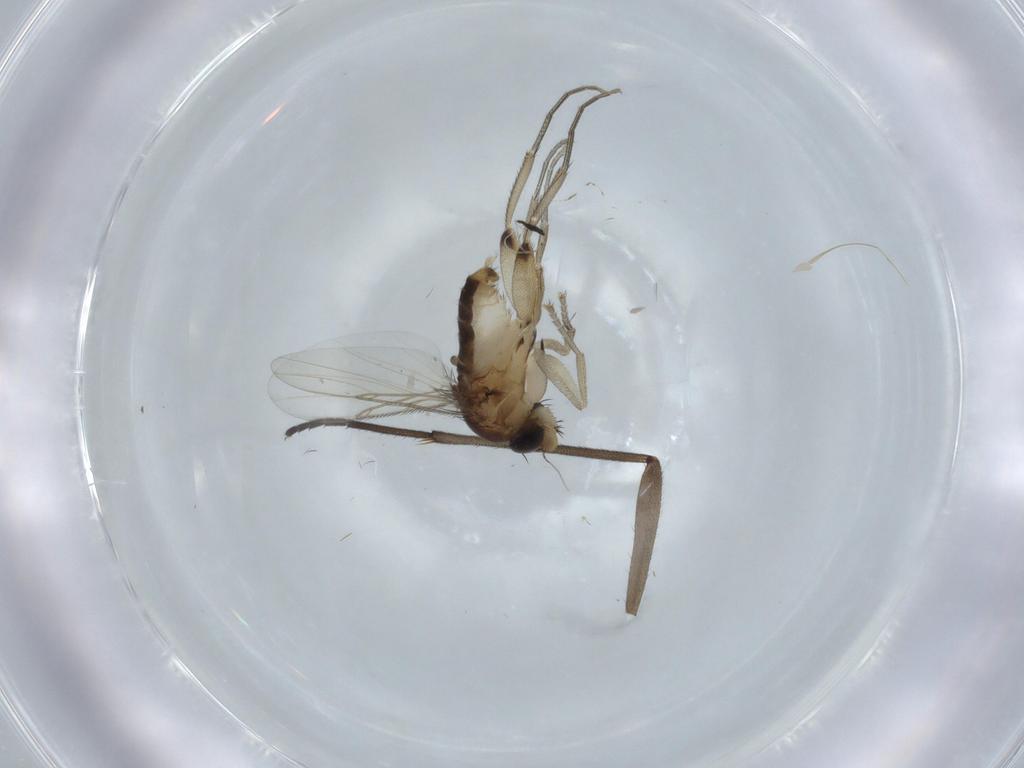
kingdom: Animalia
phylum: Arthropoda
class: Insecta
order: Diptera
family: Phoridae
